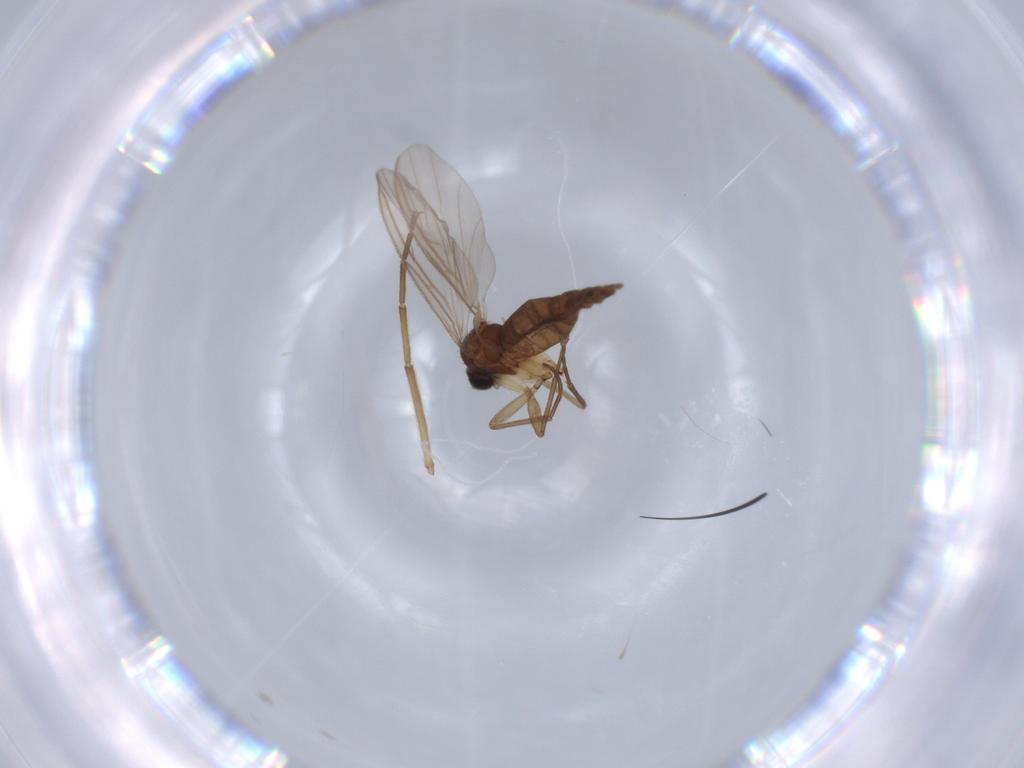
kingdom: Animalia
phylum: Arthropoda
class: Insecta
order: Diptera
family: Sciaridae
